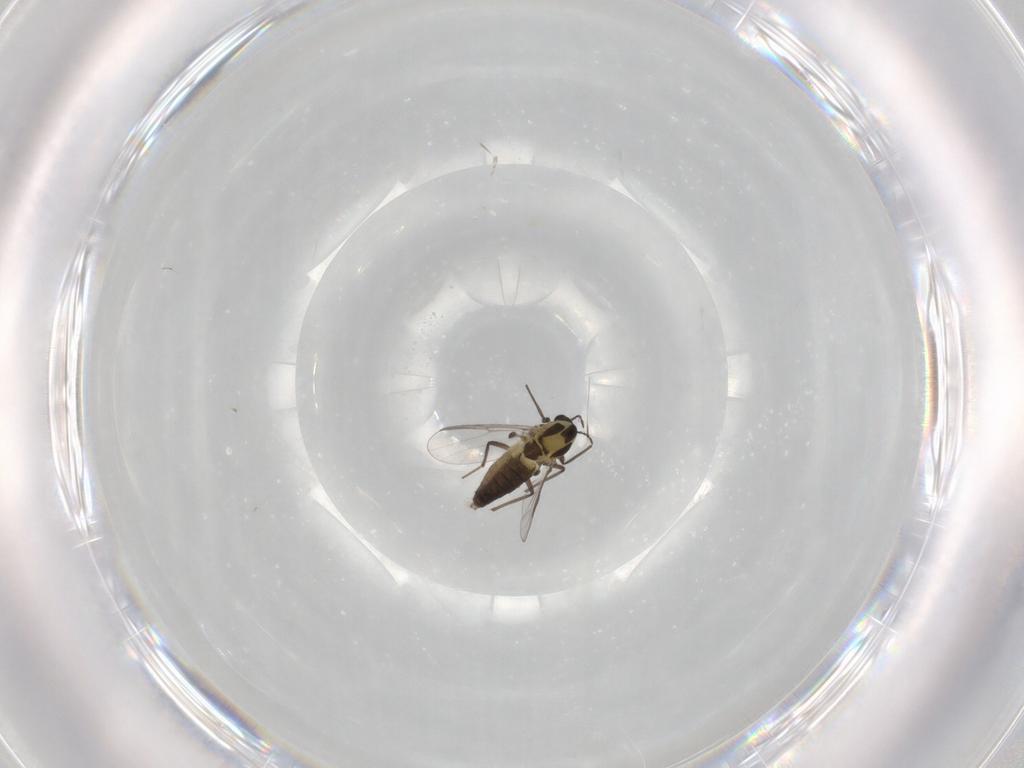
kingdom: Animalia
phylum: Arthropoda
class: Insecta
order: Diptera
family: Chironomidae
